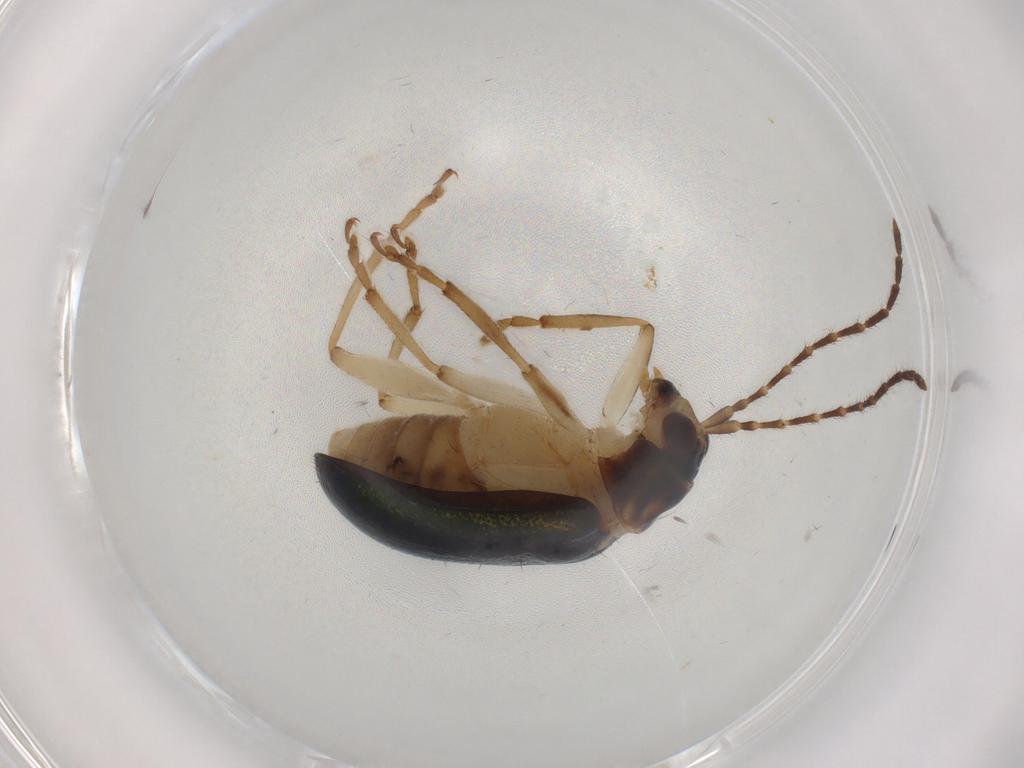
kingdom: Animalia
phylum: Arthropoda
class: Insecta
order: Coleoptera
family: Chrysomelidae
